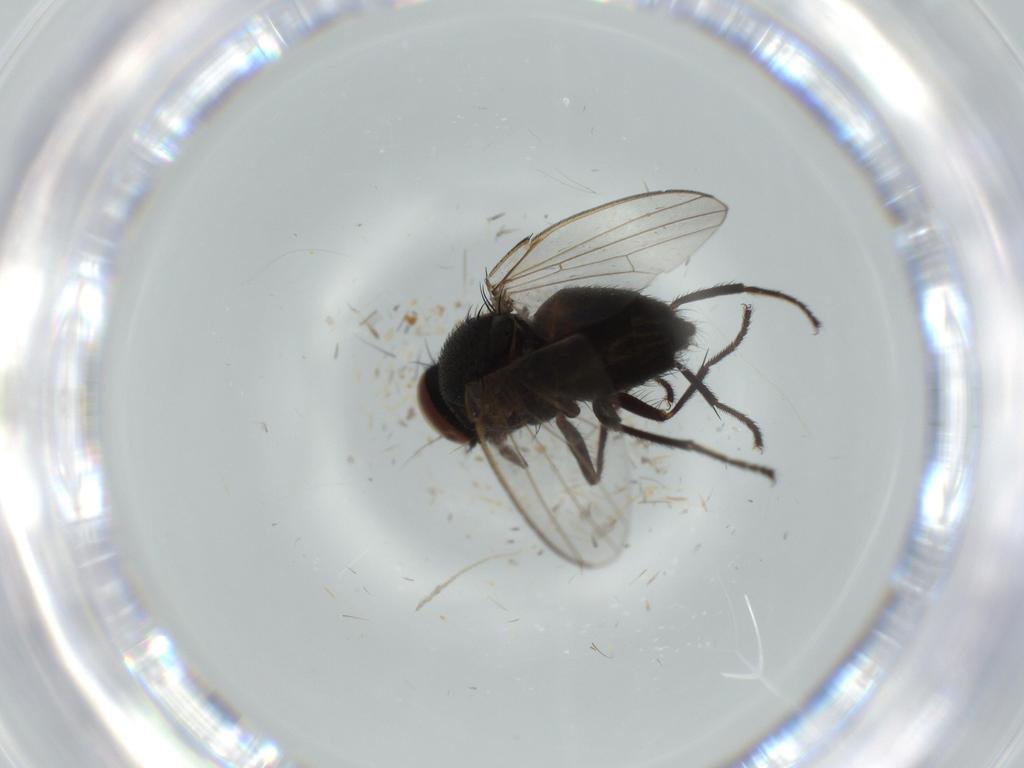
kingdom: Animalia
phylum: Arthropoda
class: Insecta
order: Diptera
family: Milichiidae
